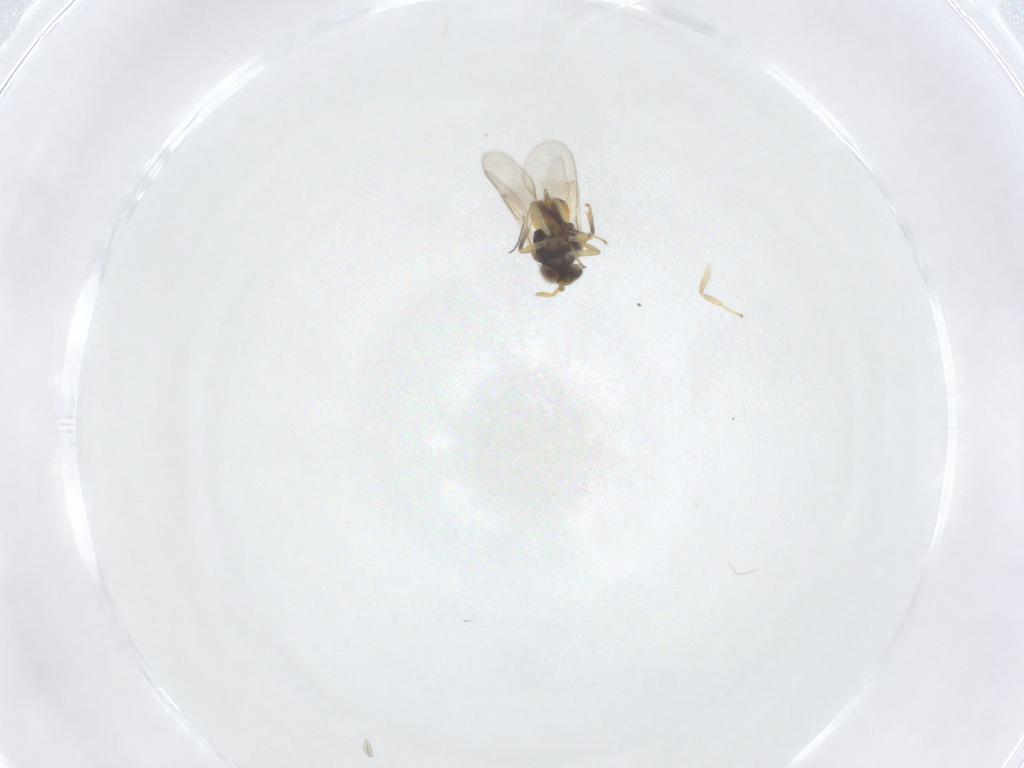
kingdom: Animalia
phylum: Arthropoda
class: Insecta
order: Hymenoptera
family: Aphelinidae
